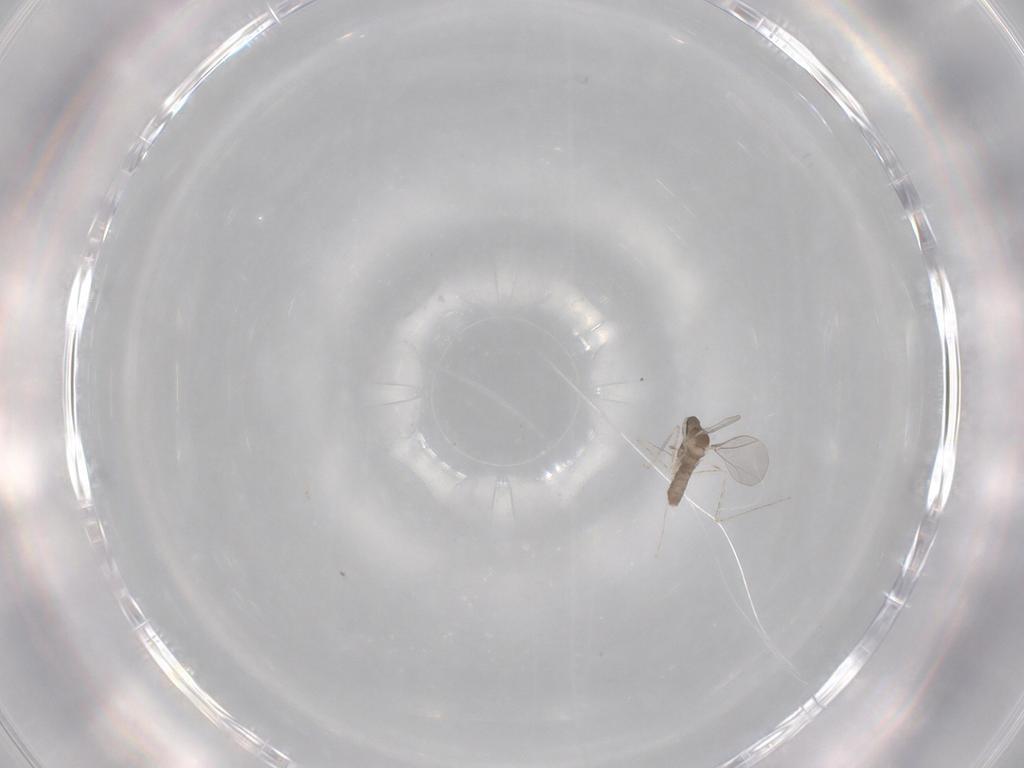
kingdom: Animalia
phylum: Arthropoda
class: Insecta
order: Diptera
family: Cecidomyiidae
